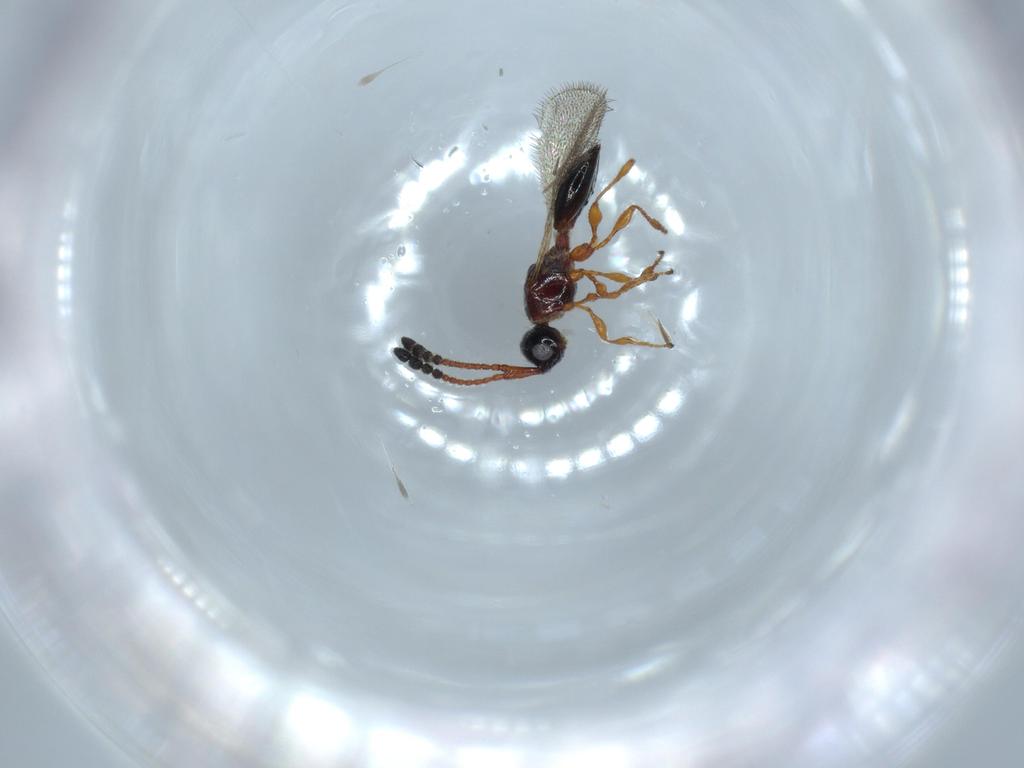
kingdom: Animalia
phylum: Arthropoda
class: Insecta
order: Hymenoptera
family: Diapriidae
